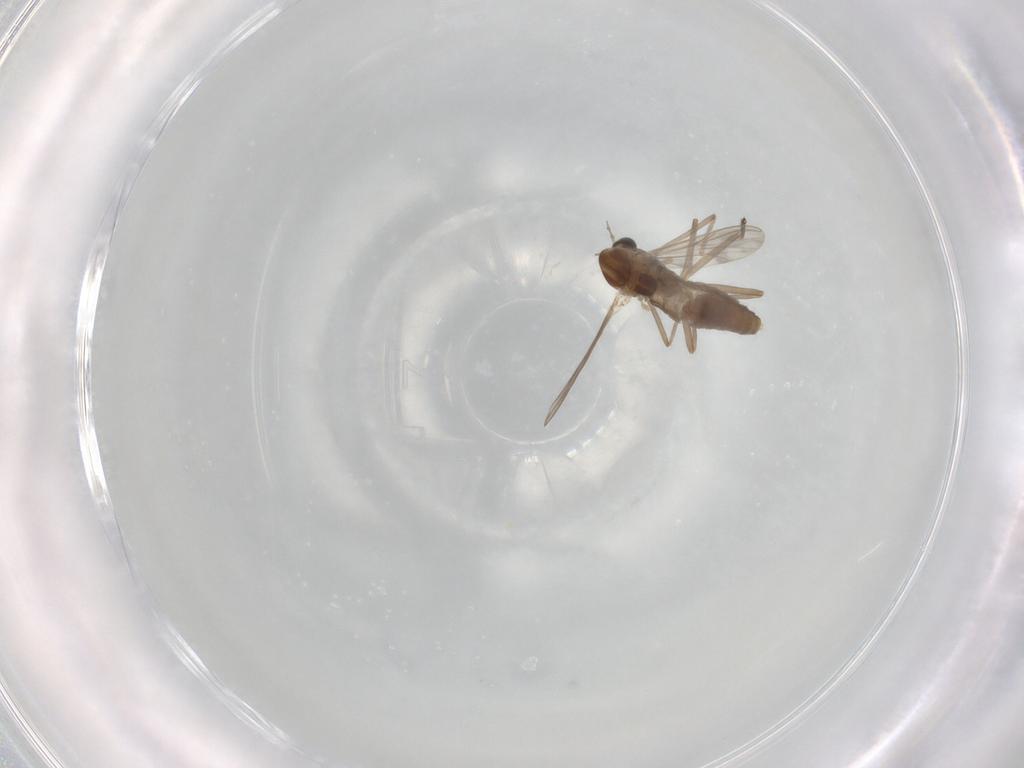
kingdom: Animalia
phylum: Arthropoda
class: Insecta
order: Diptera
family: Chironomidae
